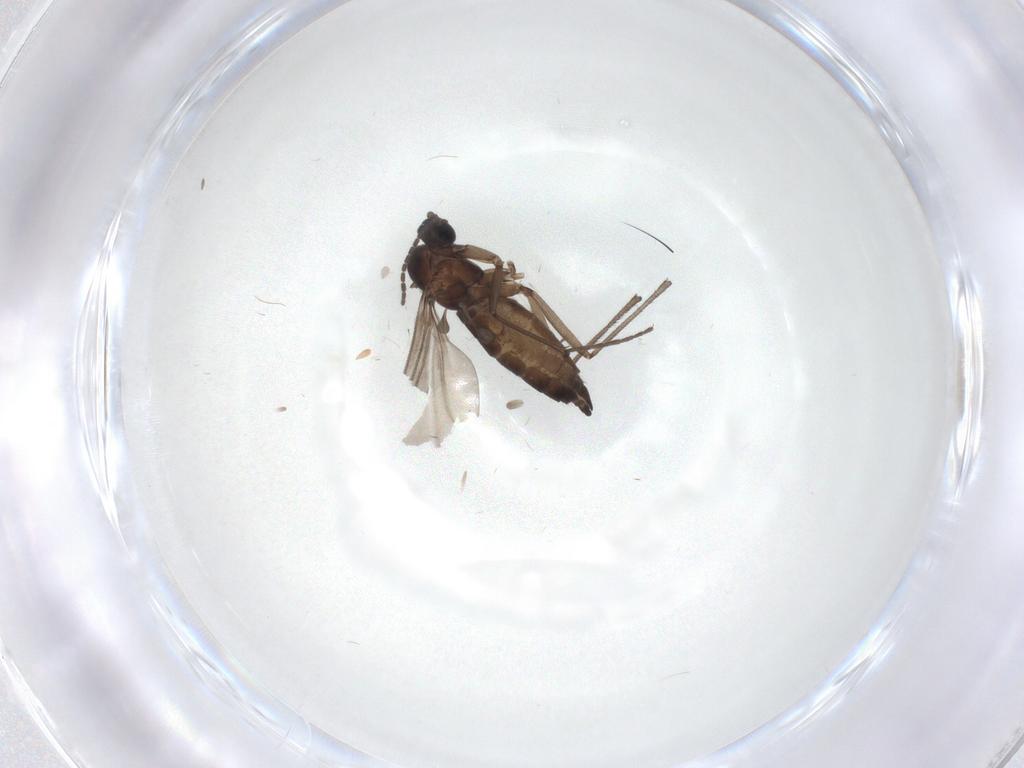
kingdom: Animalia
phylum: Arthropoda
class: Insecta
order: Diptera
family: Sciaridae
